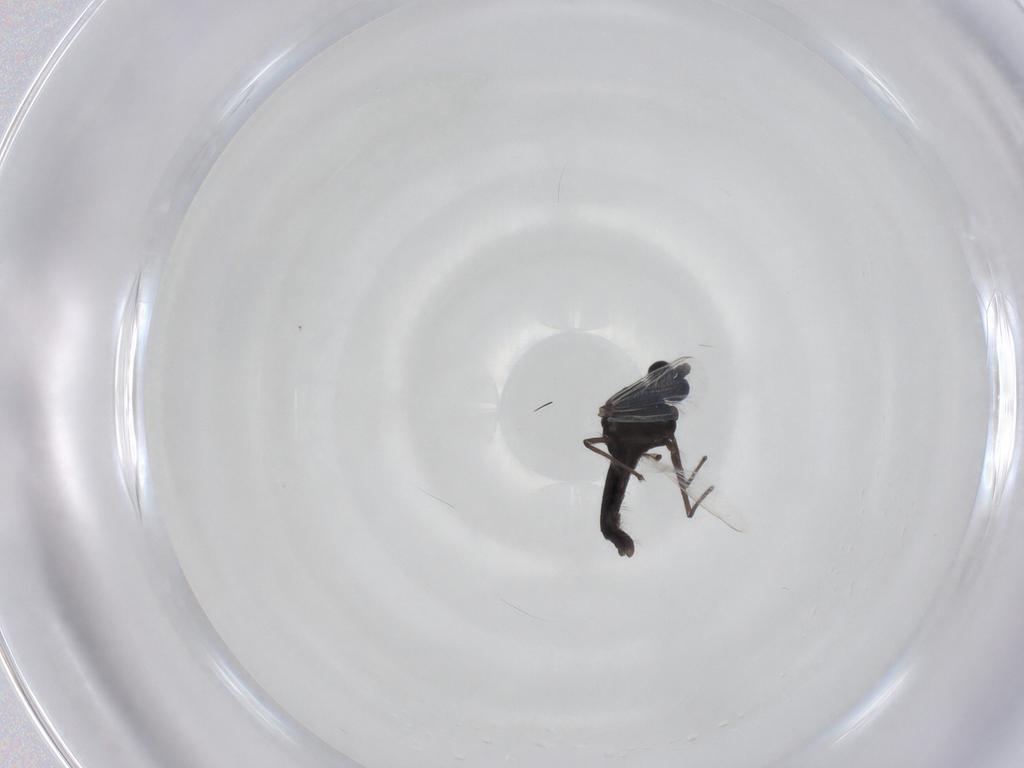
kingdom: Animalia
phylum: Arthropoda
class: Insecta
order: Diptera
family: Chironomidae
